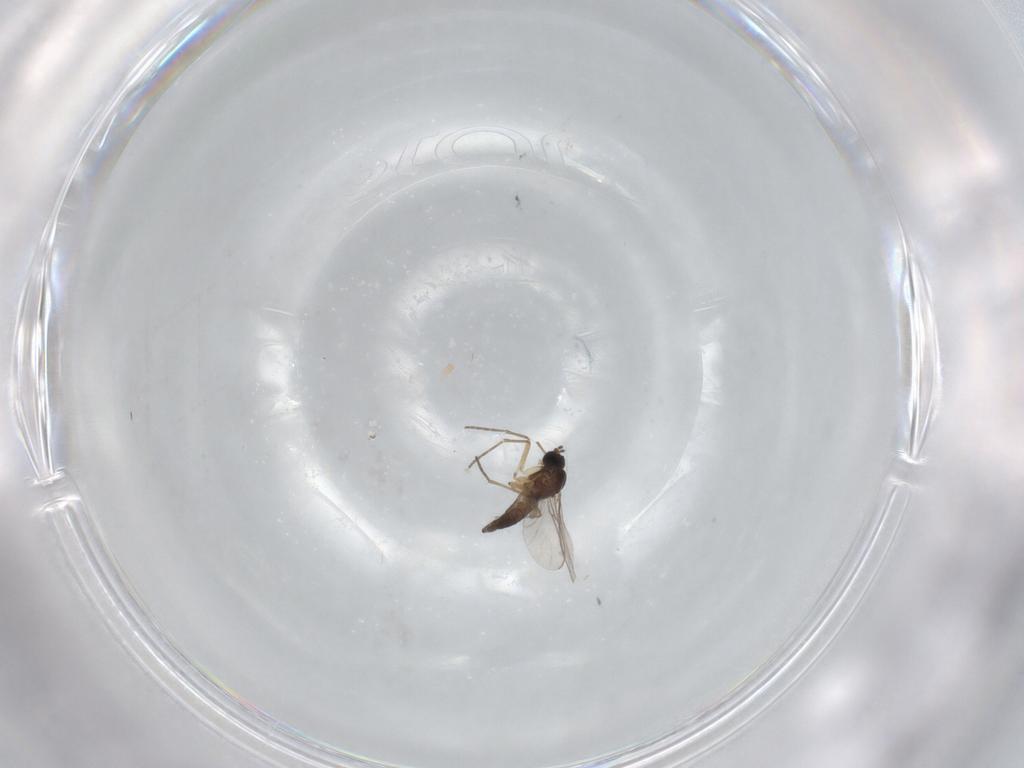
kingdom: Animalia
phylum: Arthropoda
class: Insecta
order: Diptera
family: Sciaridae
